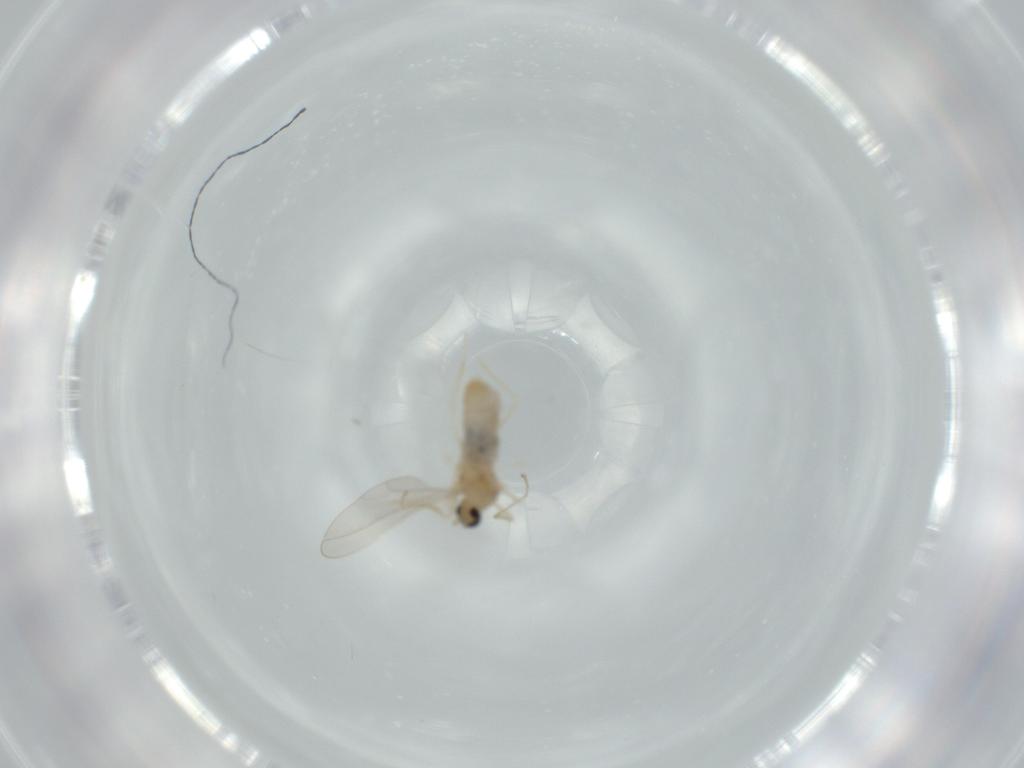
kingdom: Animalia
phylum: Arthropoda
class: Insecta
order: Diptera
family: Cecidomyiidae
